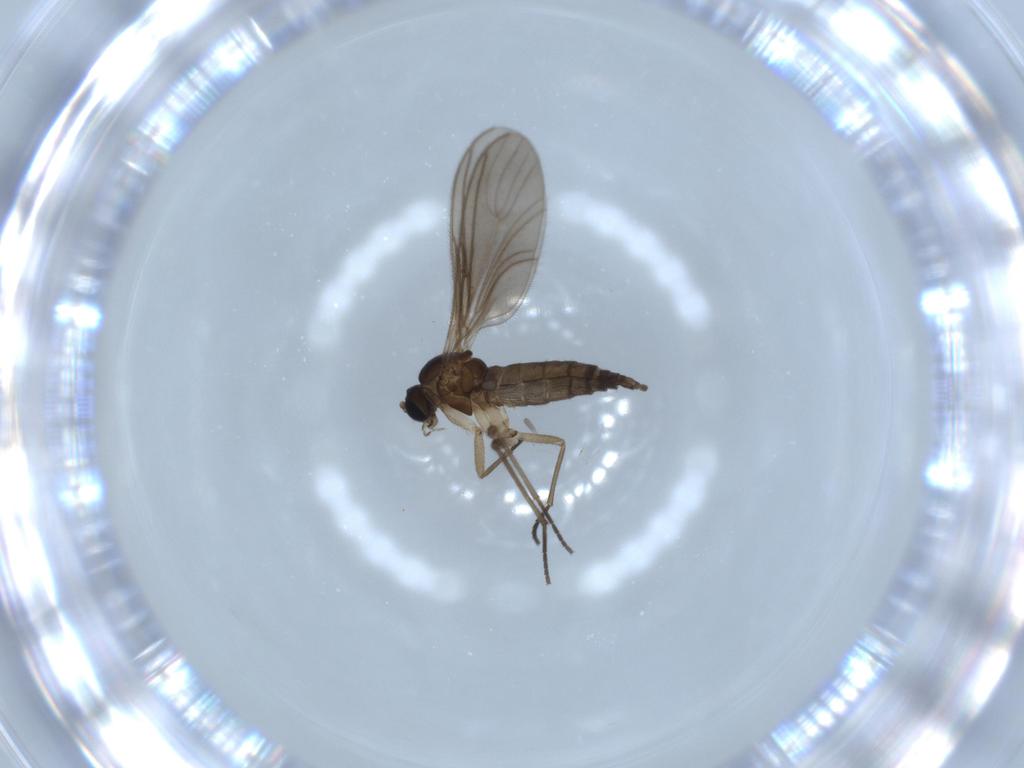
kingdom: Animalia
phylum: Arthropoda
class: Insecta
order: Diptera
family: Sciaridae
